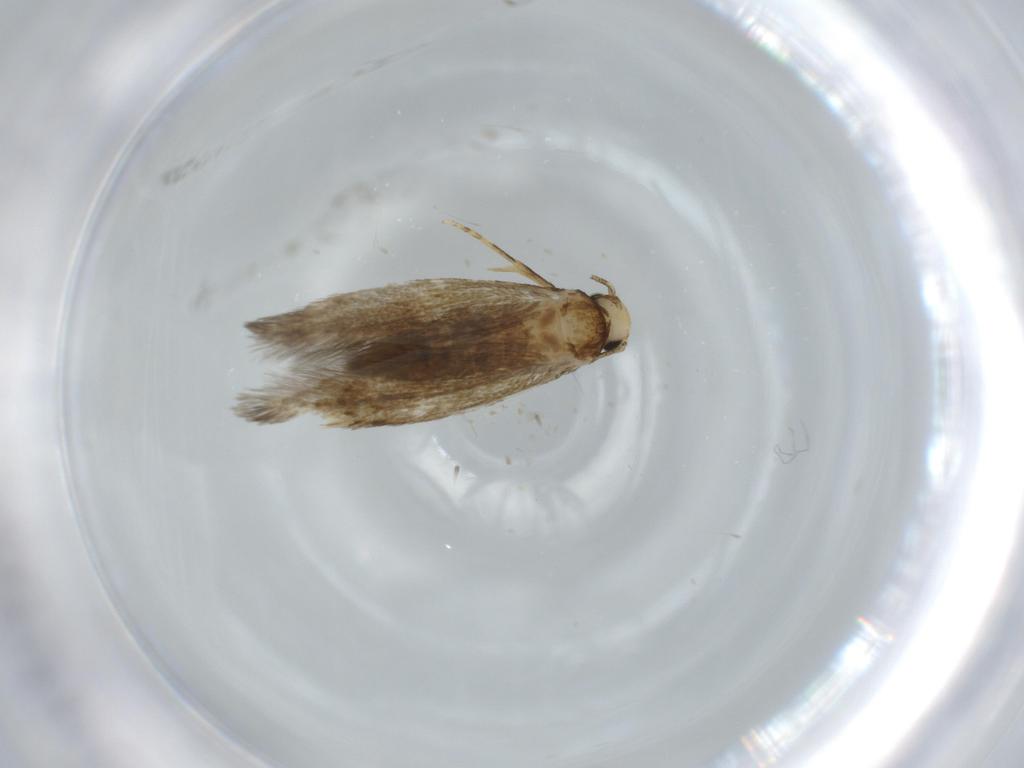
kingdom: Animalia
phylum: Arthropoda
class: Insecta
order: Lepidoptera
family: Tineidae
